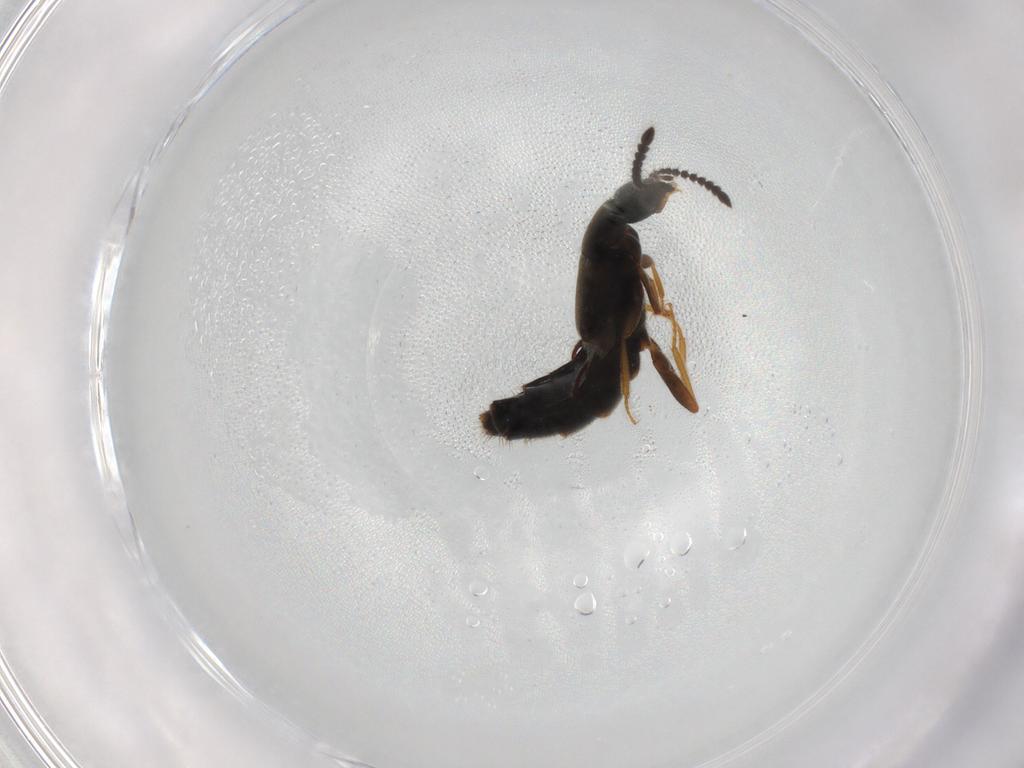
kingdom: Animalia
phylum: Arthropoda
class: Insecta
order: Coleoptera
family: Staphylinidae
